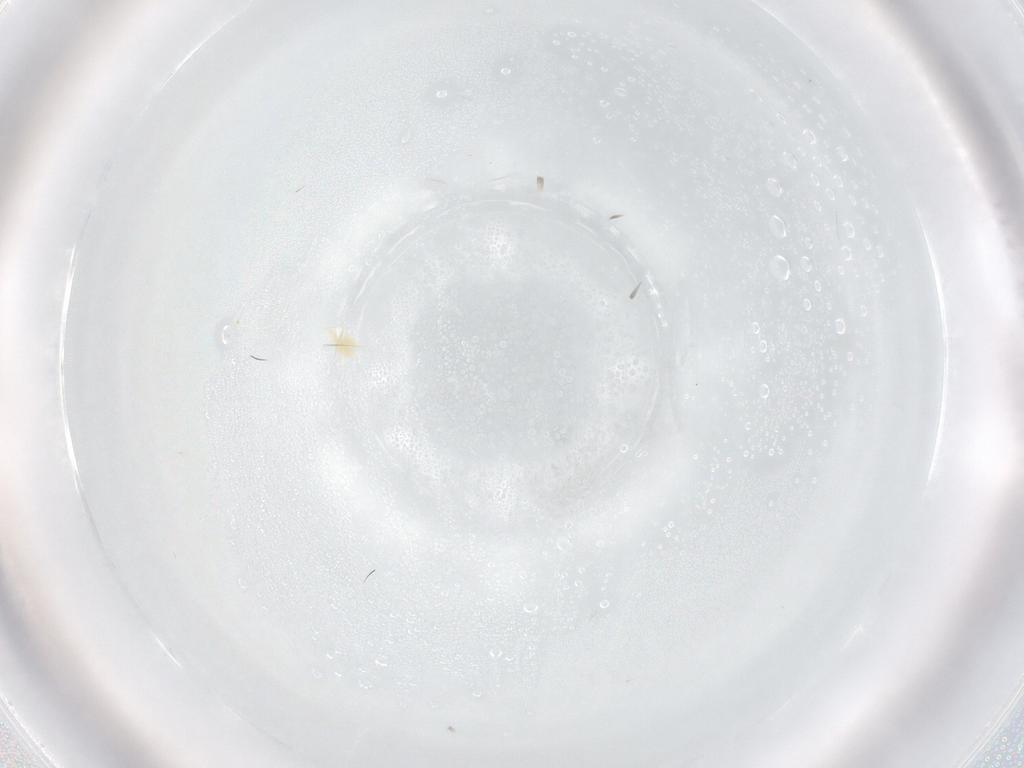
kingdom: Animalia
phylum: Arthropoda
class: Arachnida
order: Trombidiformes
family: Tetranychidae
